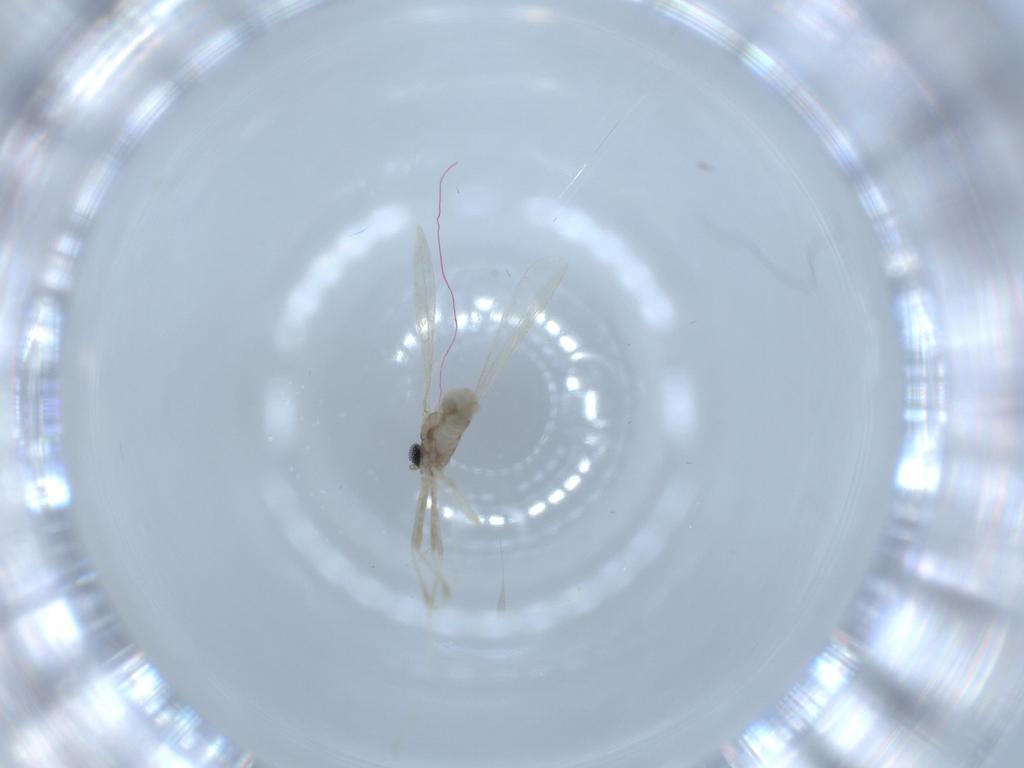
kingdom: Animalia
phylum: Arthropoda
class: Insecta
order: Diptera
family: Cecidomyiidae
